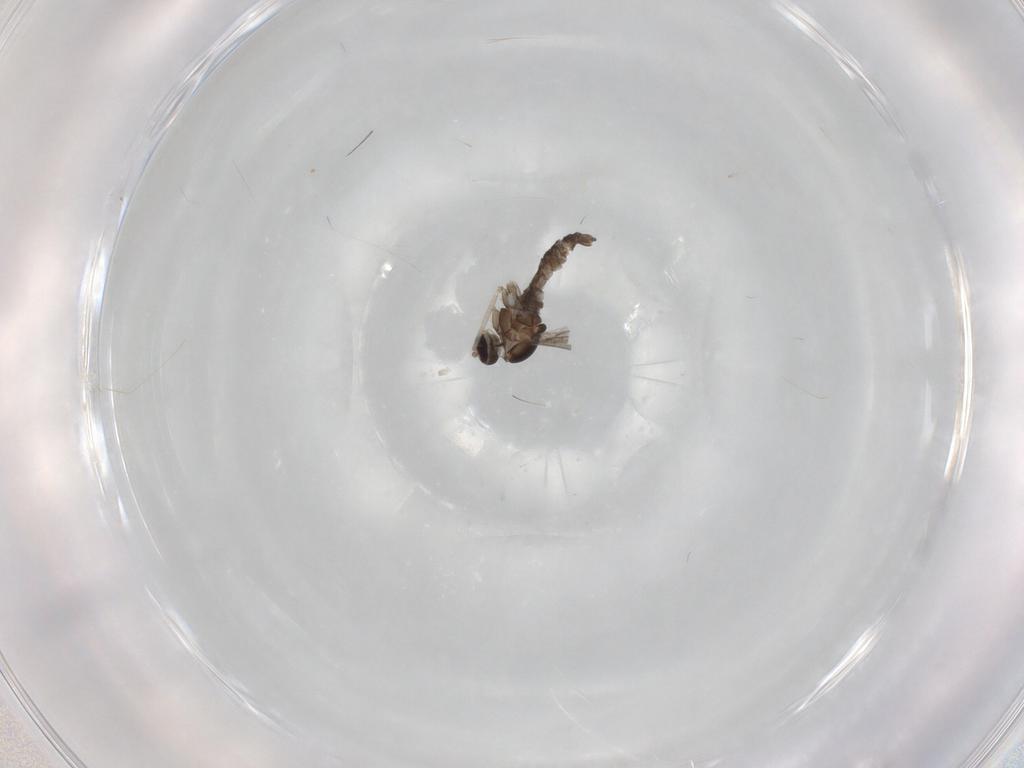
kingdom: Animalia
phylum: Arthropoda
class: Insecta
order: Diptera
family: Cecidomyiidae
